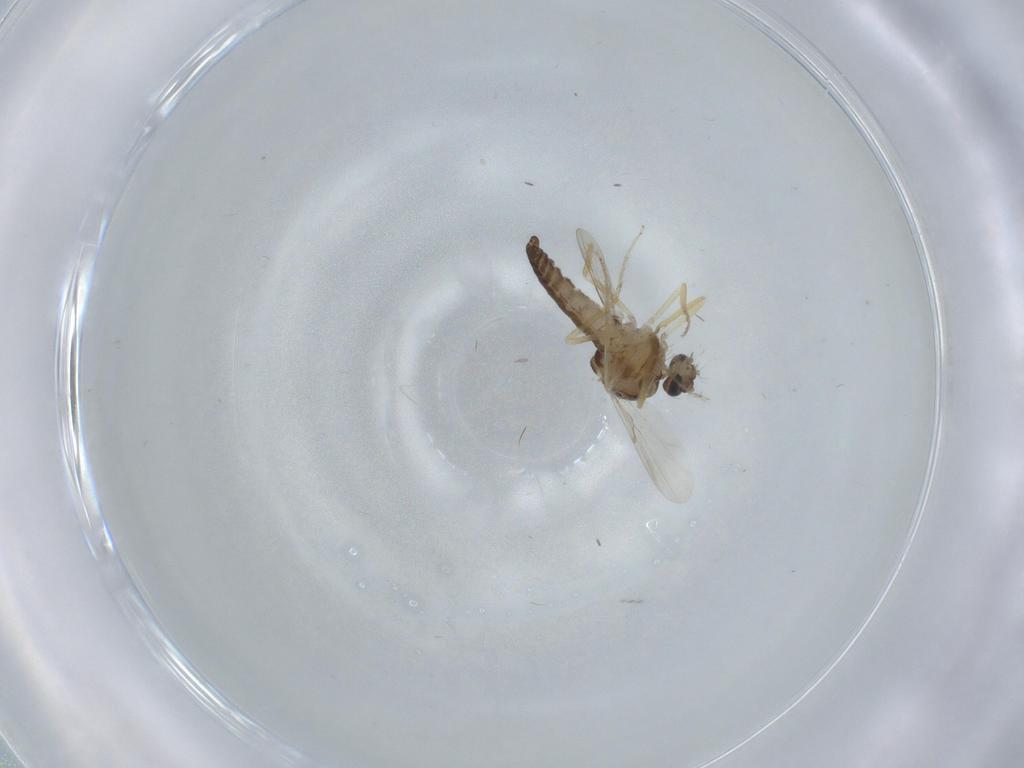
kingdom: Animalia
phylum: Arthropoda
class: Insecta
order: Diptera
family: Ceratopogonidae
